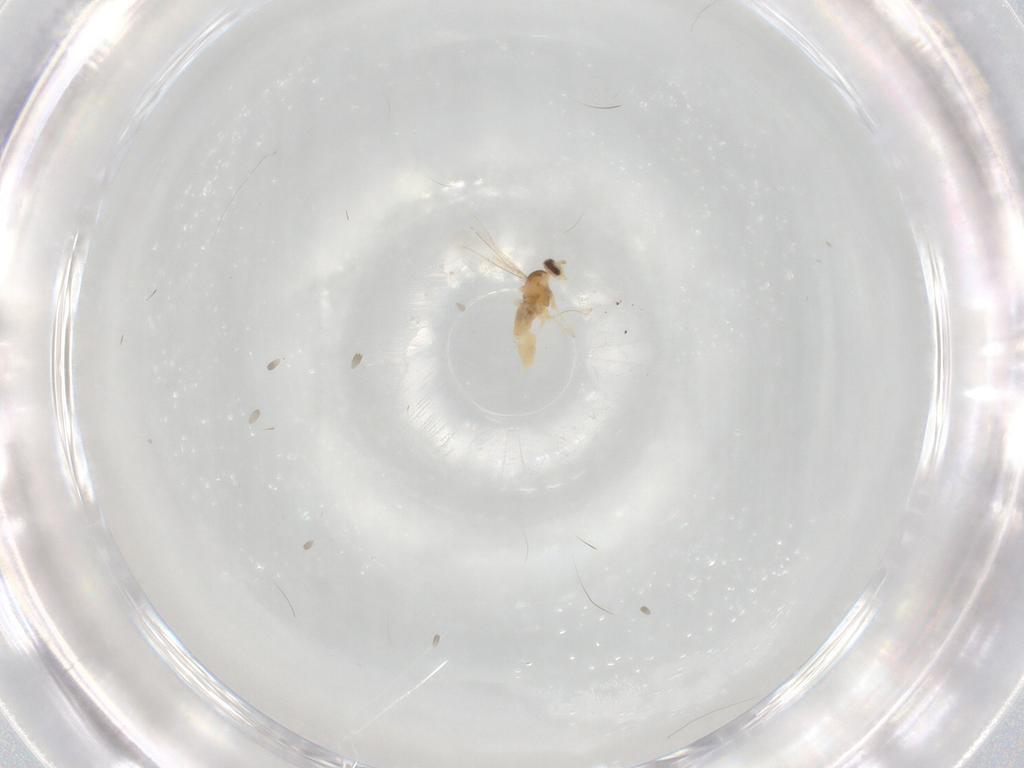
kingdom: Animalia
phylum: Arthropoda
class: Insecta
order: Diptera
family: Cecidomyiidae
